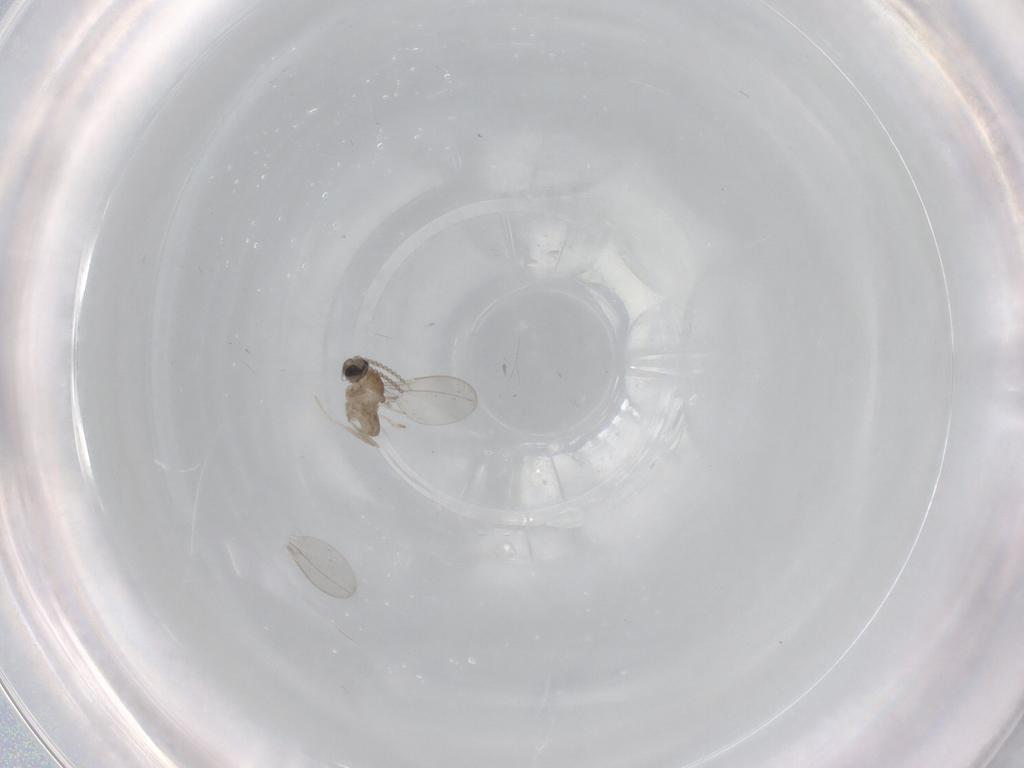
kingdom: Animalia
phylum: Arthropoda
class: Insecta
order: Diptera
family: Cecidomyiidae
